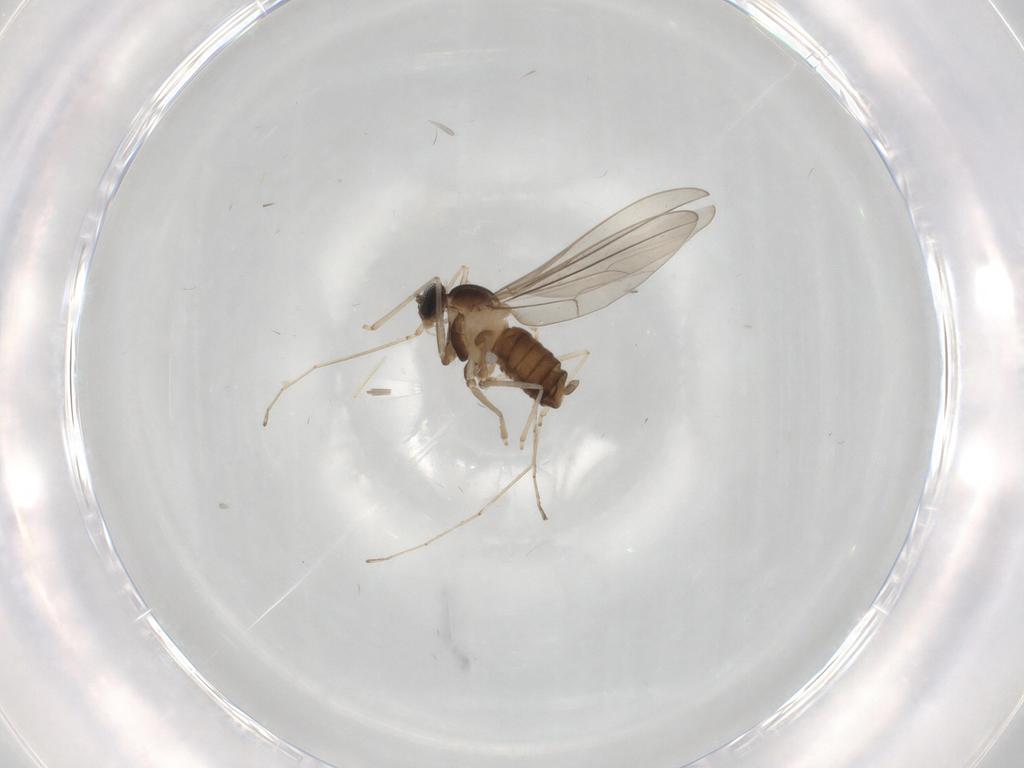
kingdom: Animalia
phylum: Arthropoda
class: Insecta
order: Diptera
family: Cecidomyiidae
